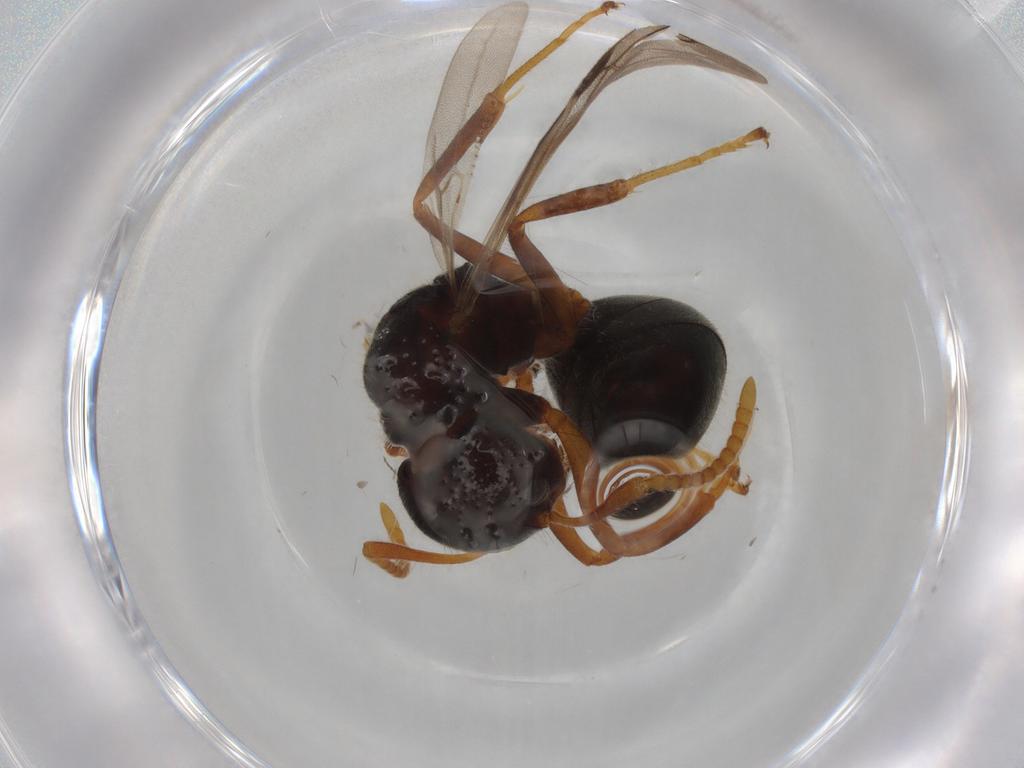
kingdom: Animalia
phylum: Arthropoda
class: Insecta
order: Hymenoptera
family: Formicidae
